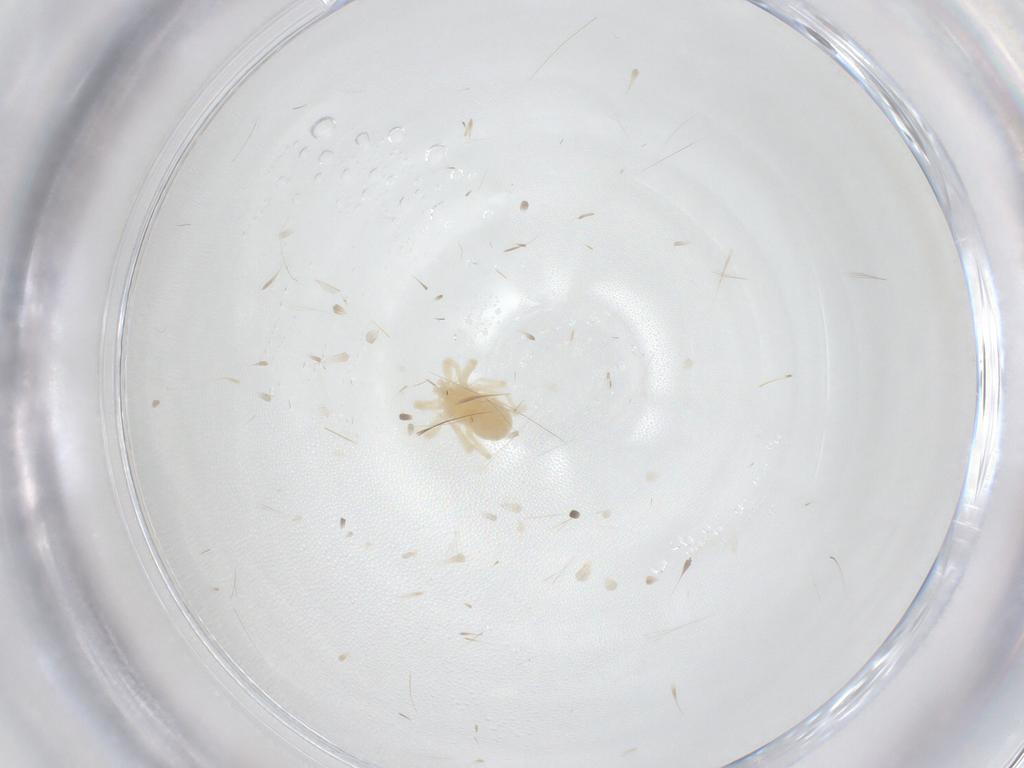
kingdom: Animalia
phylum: Arthropoda
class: Arachnida
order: Trombidiformes
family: Anystidae
